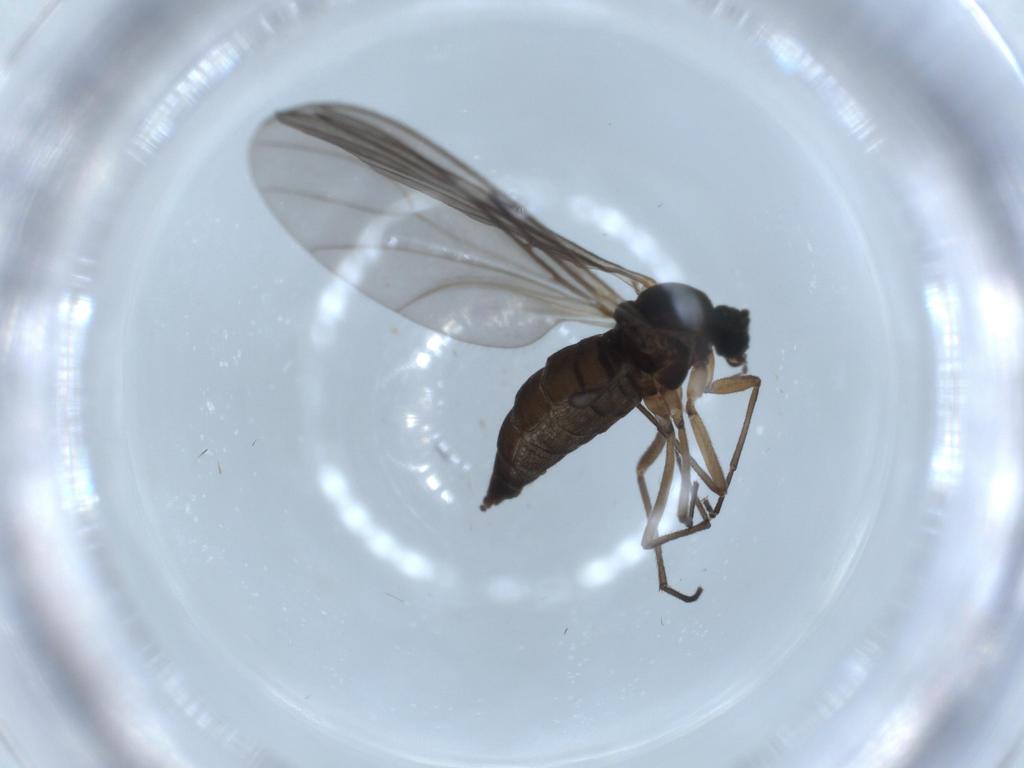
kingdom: Animalia
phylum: Arthropoda
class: Insecta
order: Diptera
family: Sciaridae
